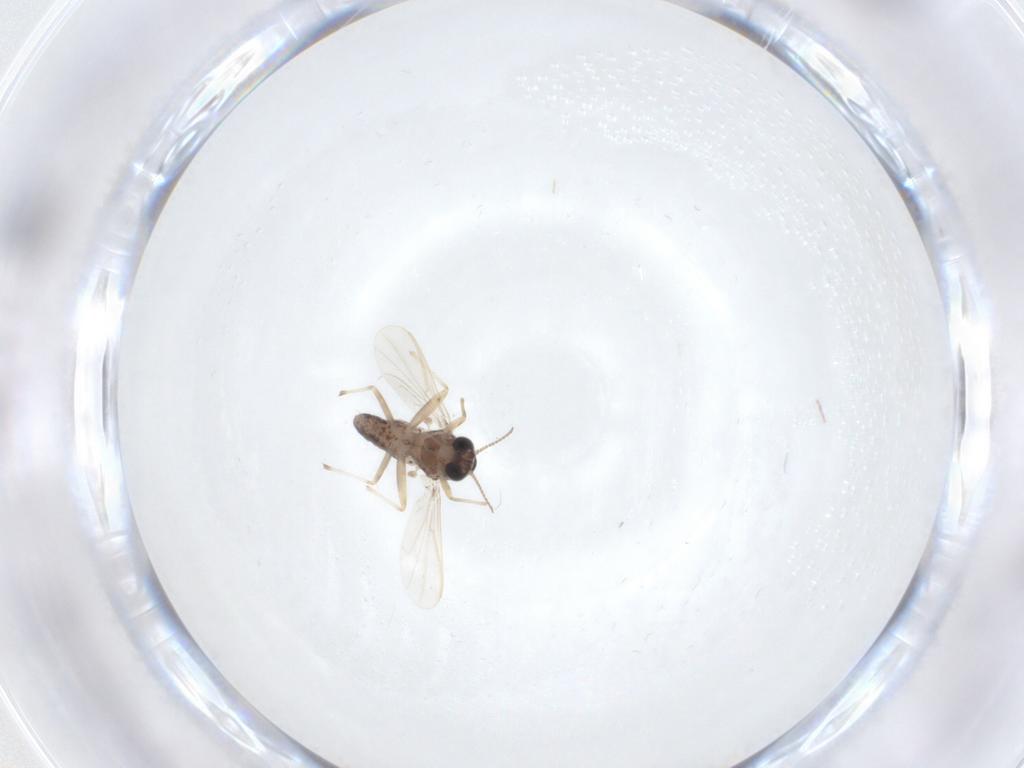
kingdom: Animalia
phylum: Arthropoda
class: Insecta
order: Diptera
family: Chironomidae
